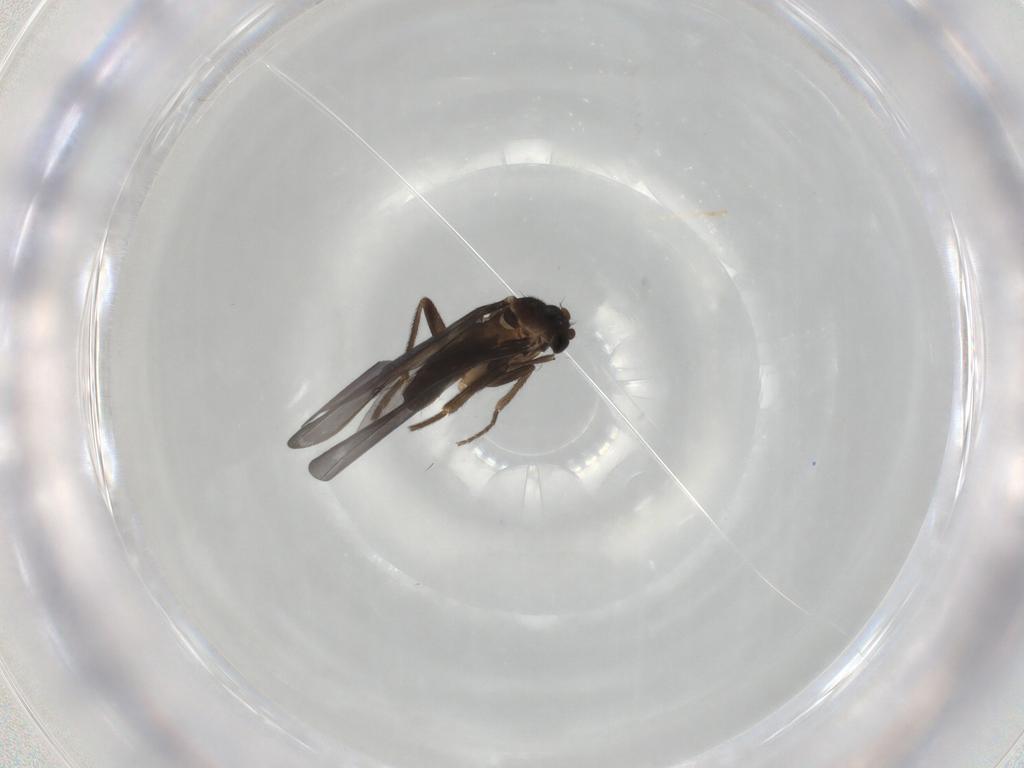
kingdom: Animalia
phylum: Arthropoda
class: Insecta
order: Diptera
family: Phoridae
